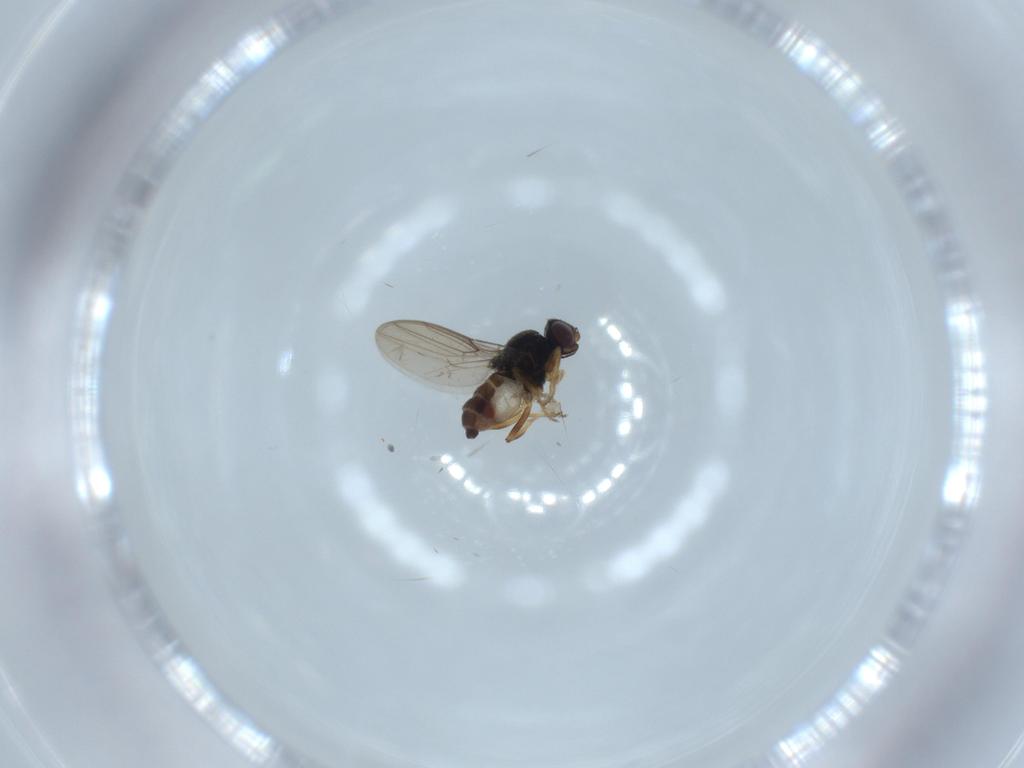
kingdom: Animalia
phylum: Arthropoda
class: Insecta
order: Diptera
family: Chloropidae
